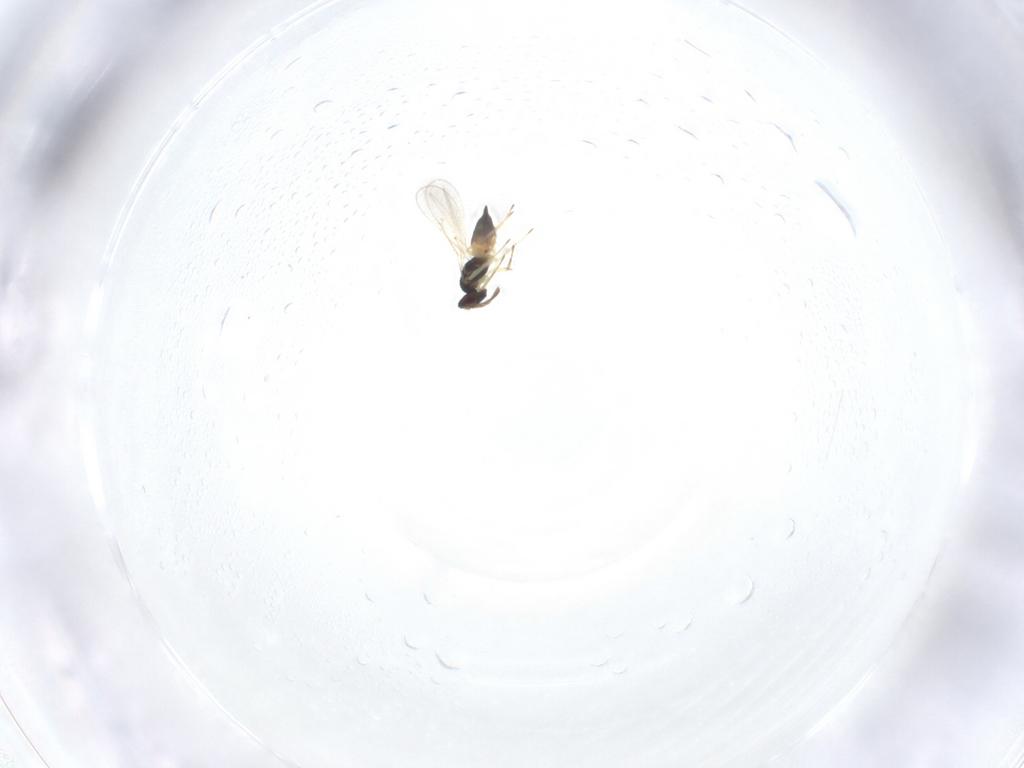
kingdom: Animalia
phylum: Arthropoda
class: Insecta
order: Hymenoptera
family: Eulophidae
